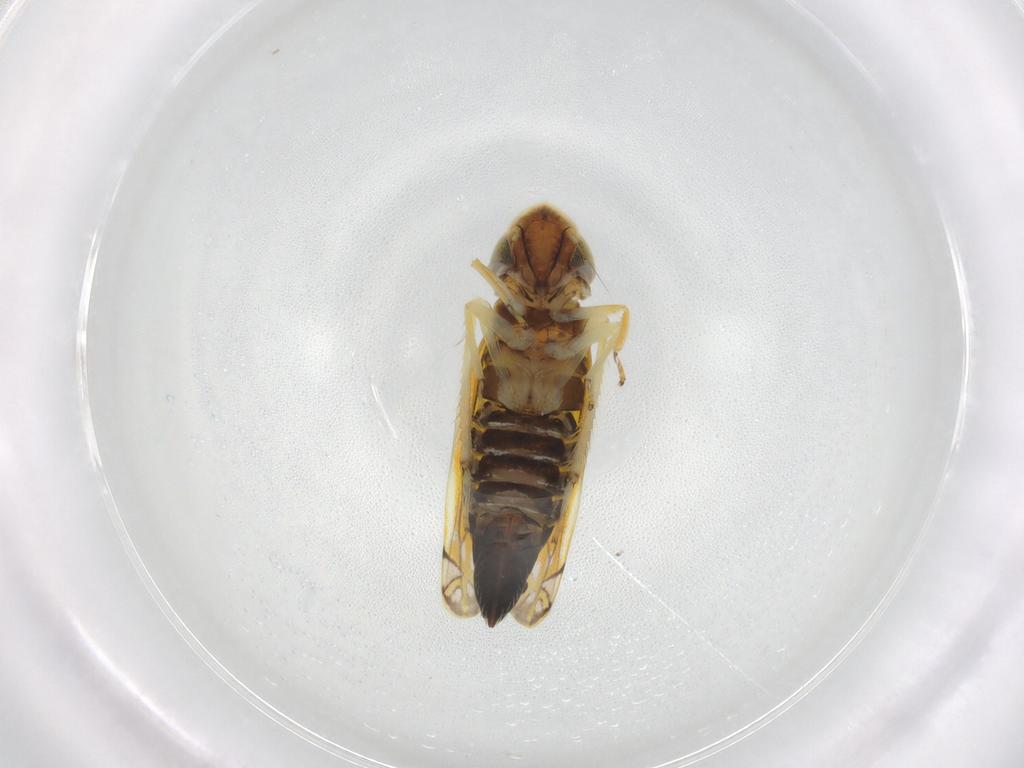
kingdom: Animalia
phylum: Arthropoda
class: Insecta
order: Hemiptera
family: Cicadellidae
